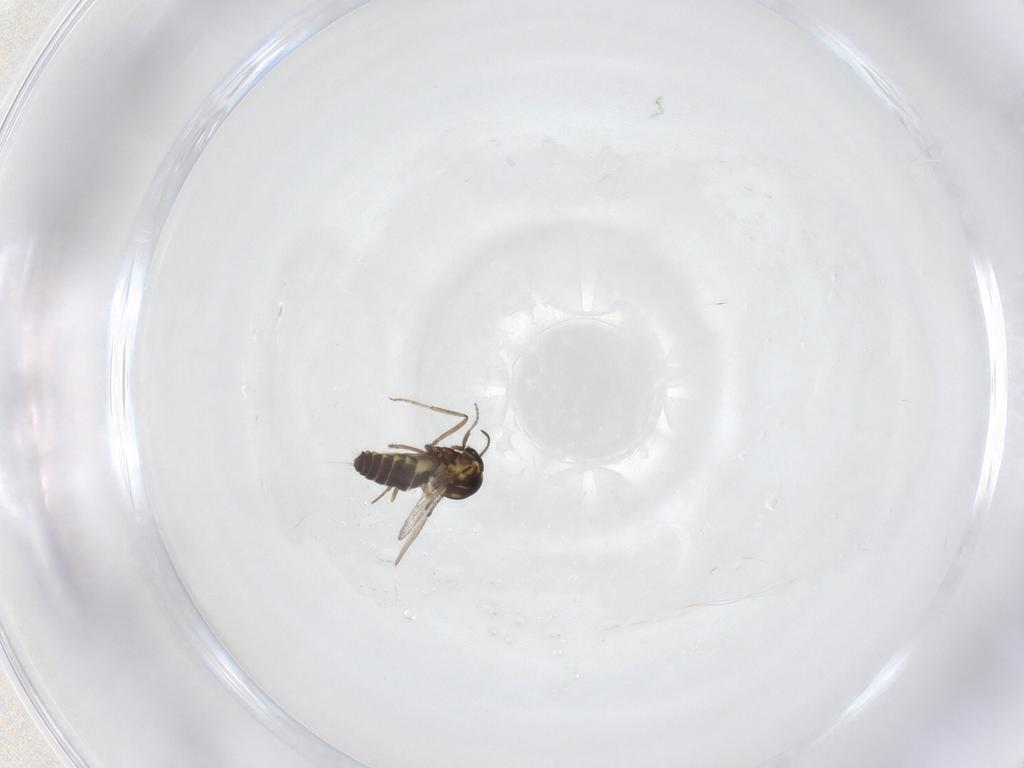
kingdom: Animalia
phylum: Arthropoda
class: Insecta
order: Diptera
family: Ceratopogonidae
